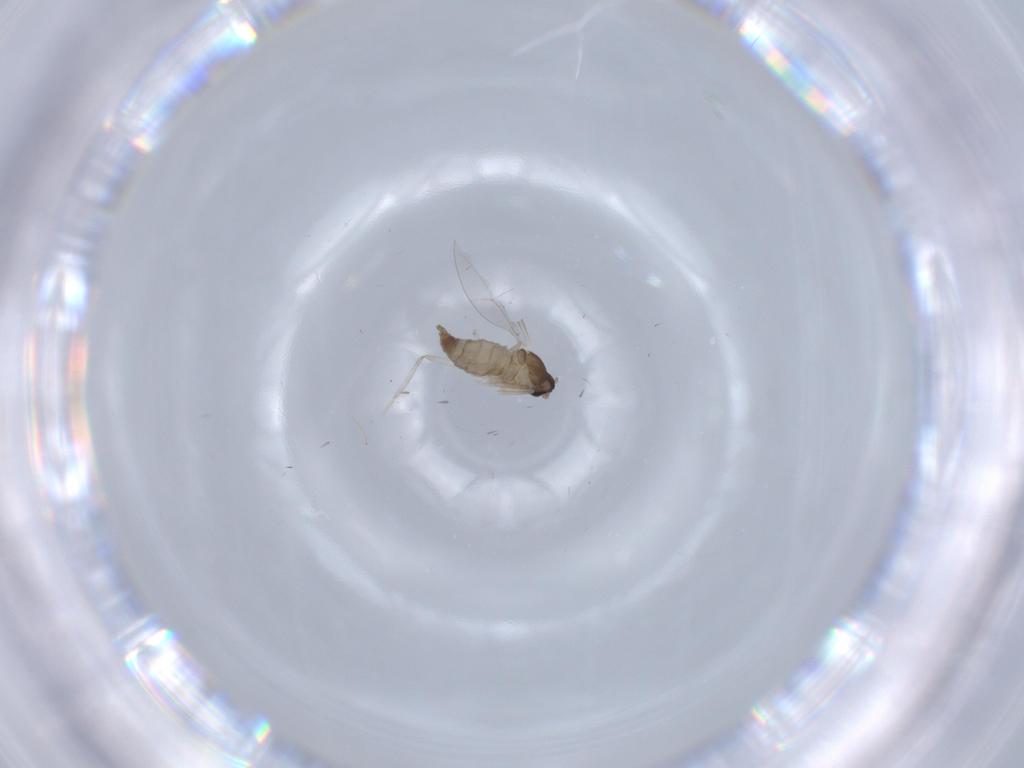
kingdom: Animalia
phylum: Arthropoda
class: Insecta
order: Diptera
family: Cecidomyiidae
